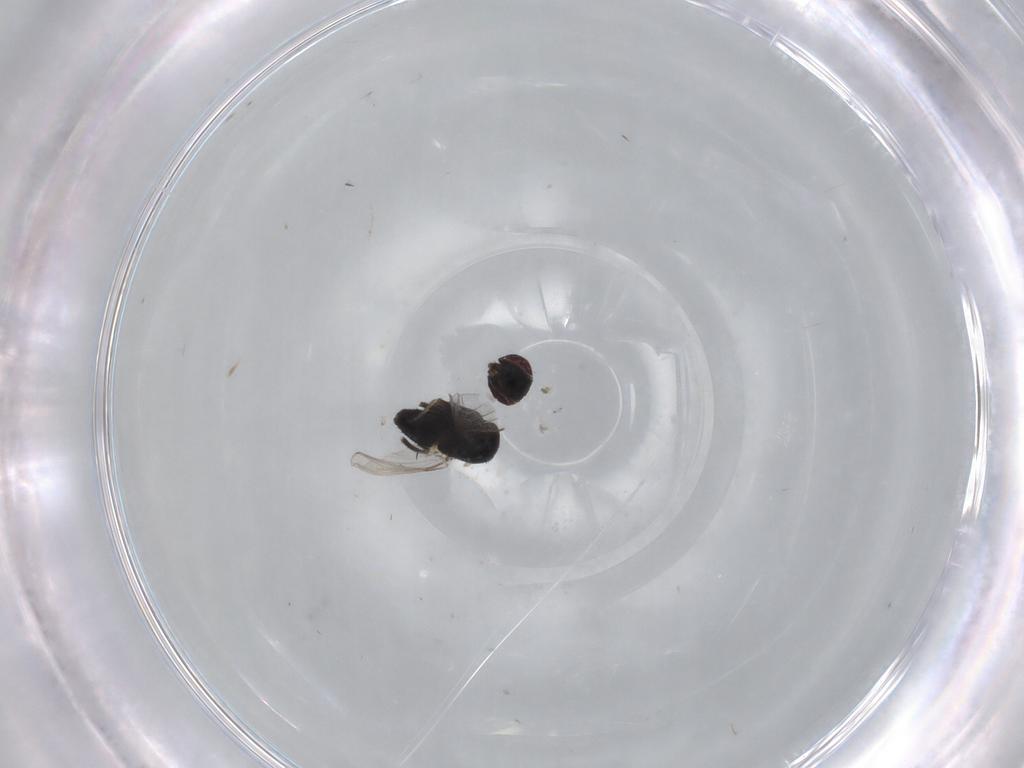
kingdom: Animalia
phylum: Arthropoda
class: Insecta
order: Diptera
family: Milichiidae
